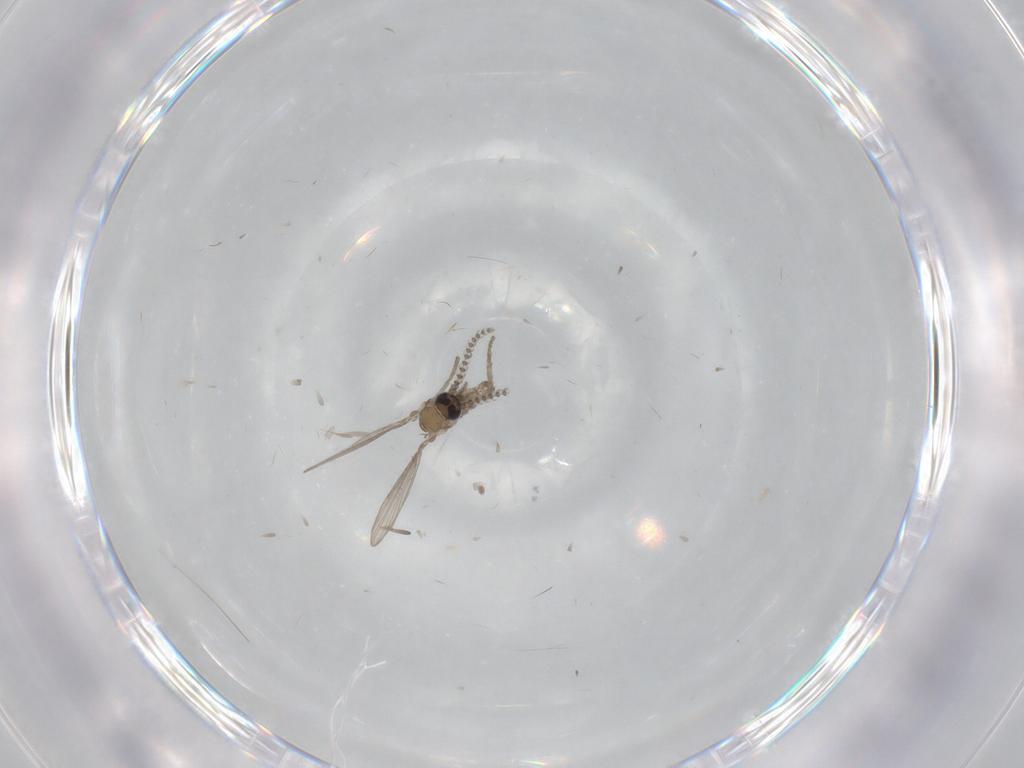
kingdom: Animalia
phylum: Arthropoda
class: Insecta
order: Diptera
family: Psychodidae
